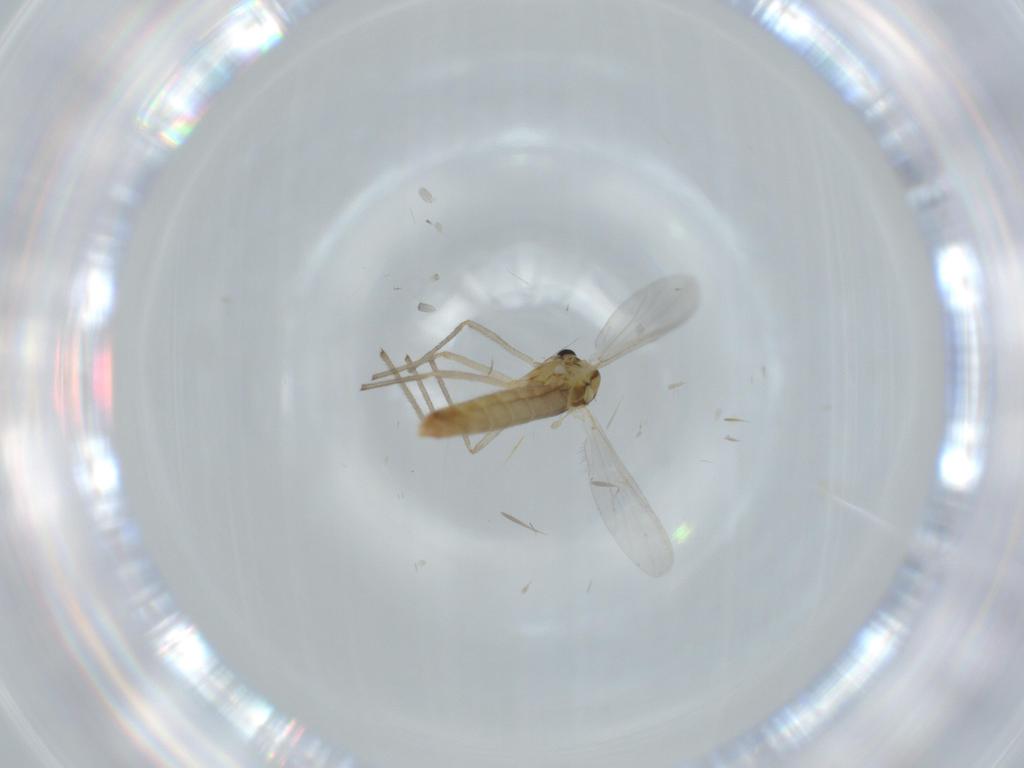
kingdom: Animalia
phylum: Arthropoda
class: Insecta
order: Diptera
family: Chironomidae
